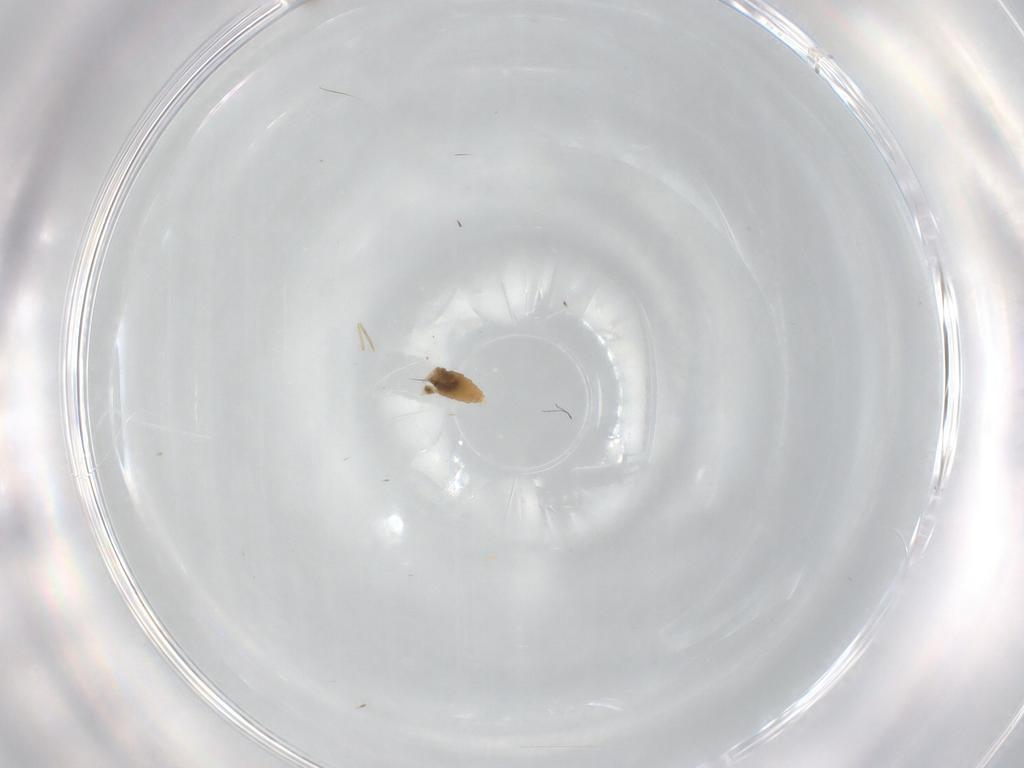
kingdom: Animalia
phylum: Arthropoda
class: Insecta
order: Diptera
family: Cecidomyiidae
